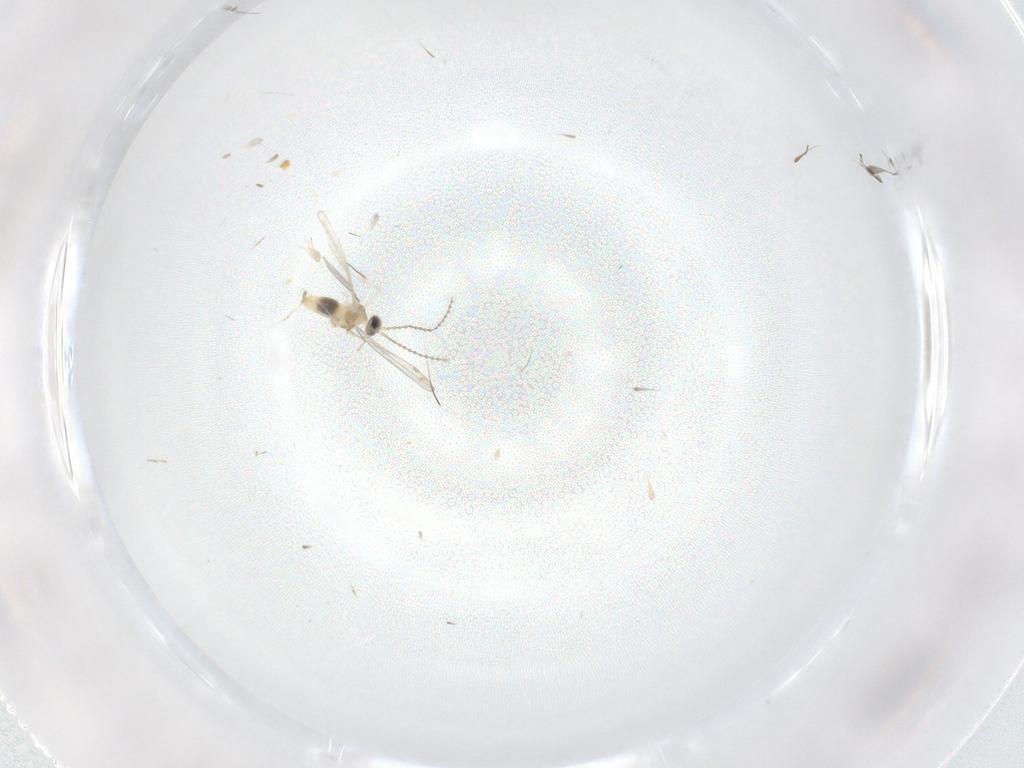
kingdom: Animalia
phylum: Arthropoda
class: Insecta
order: Diptera
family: Cecidomyiidae
